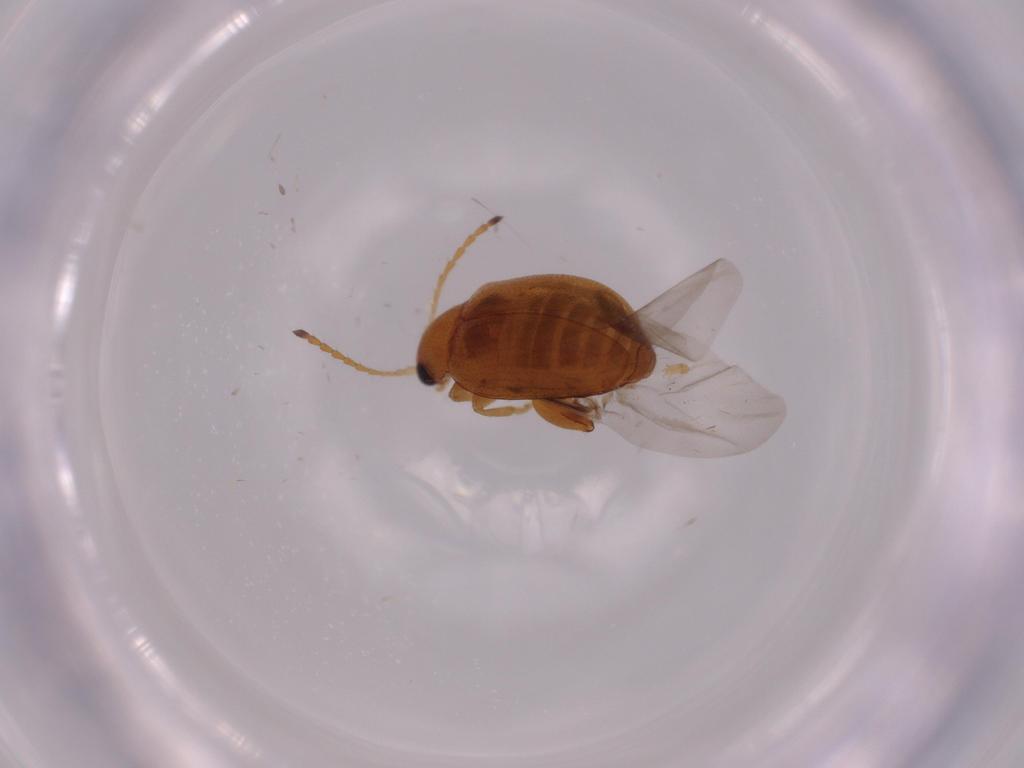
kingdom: Animalia
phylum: Arthropoda
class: Insecta
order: Coleoptera
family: Chrysomelidae
